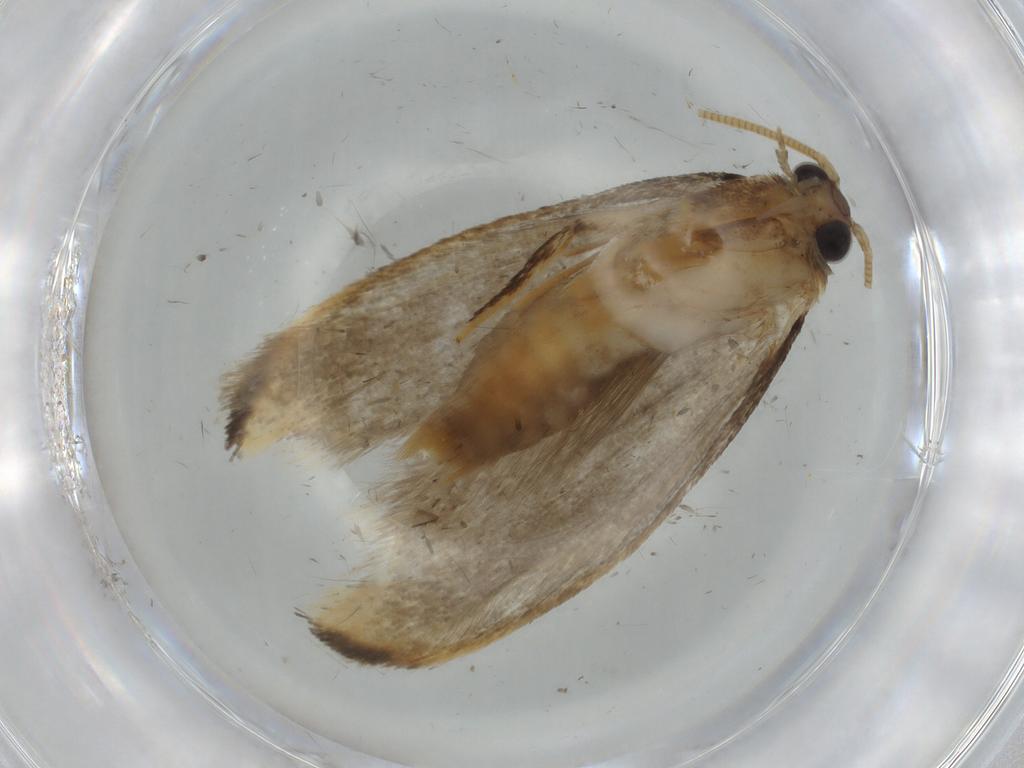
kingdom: Animalia
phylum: Arthropoda
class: Insecta
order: Lepidoptera
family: Tineidae
